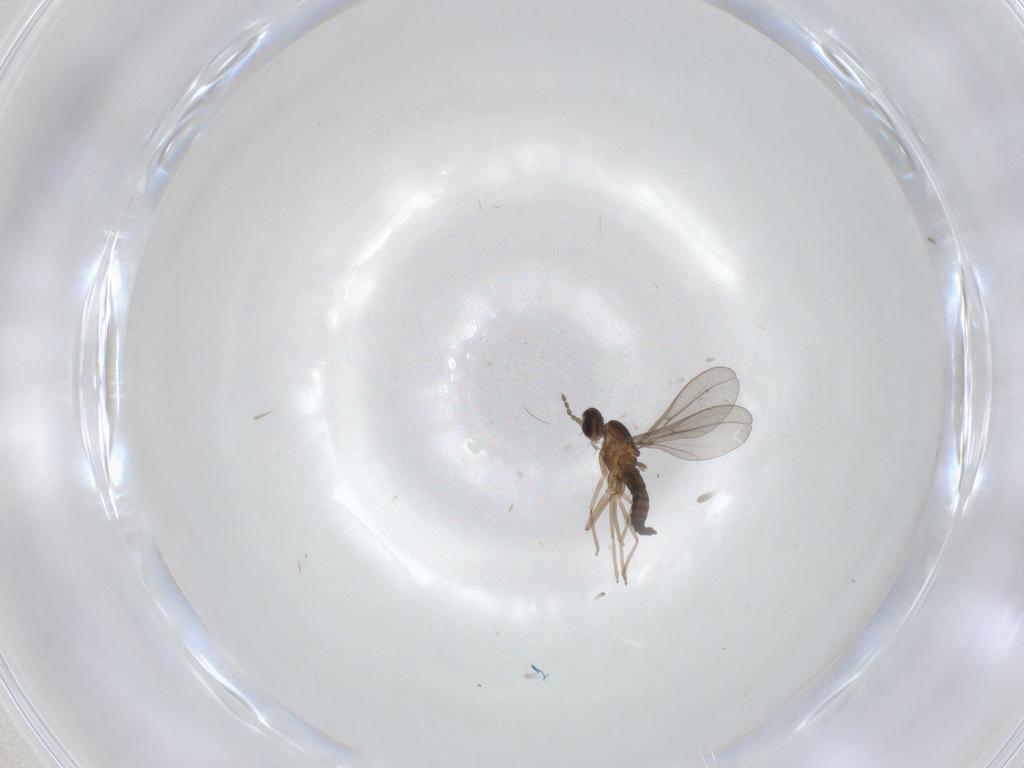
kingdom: Animalia
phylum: Arthropoda
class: Insecta
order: Diptera
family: Cecidomyiidae
